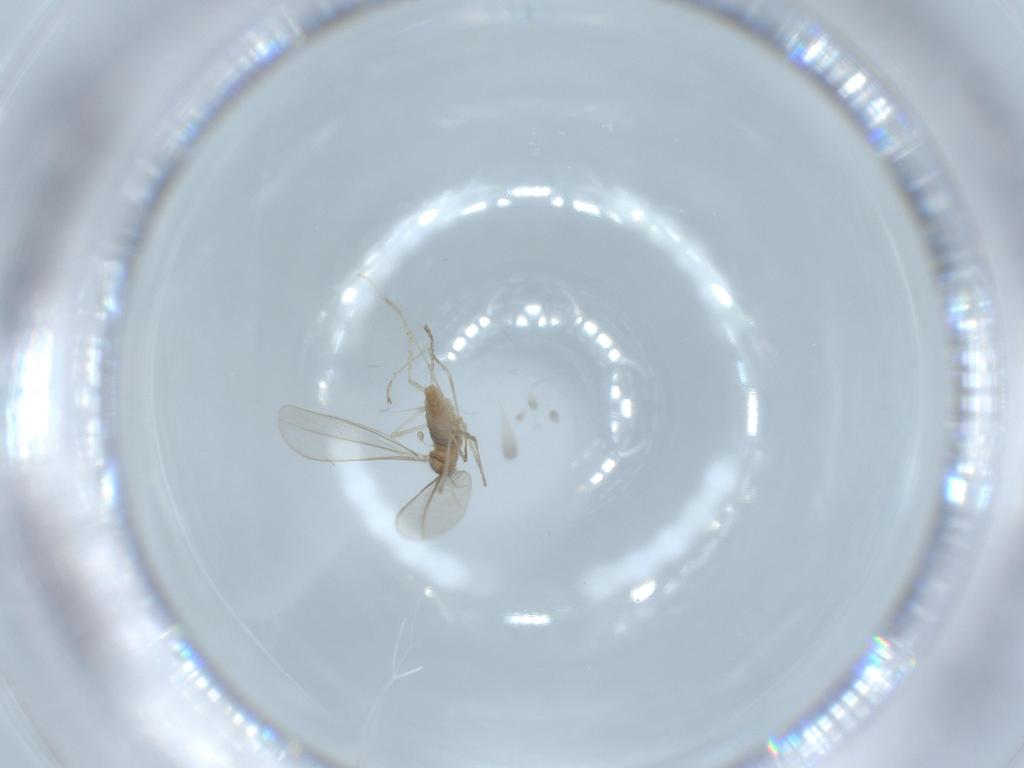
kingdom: Animalia
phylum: Arthropoda
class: Insecta
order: Diptera
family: Cecidomyiidae
